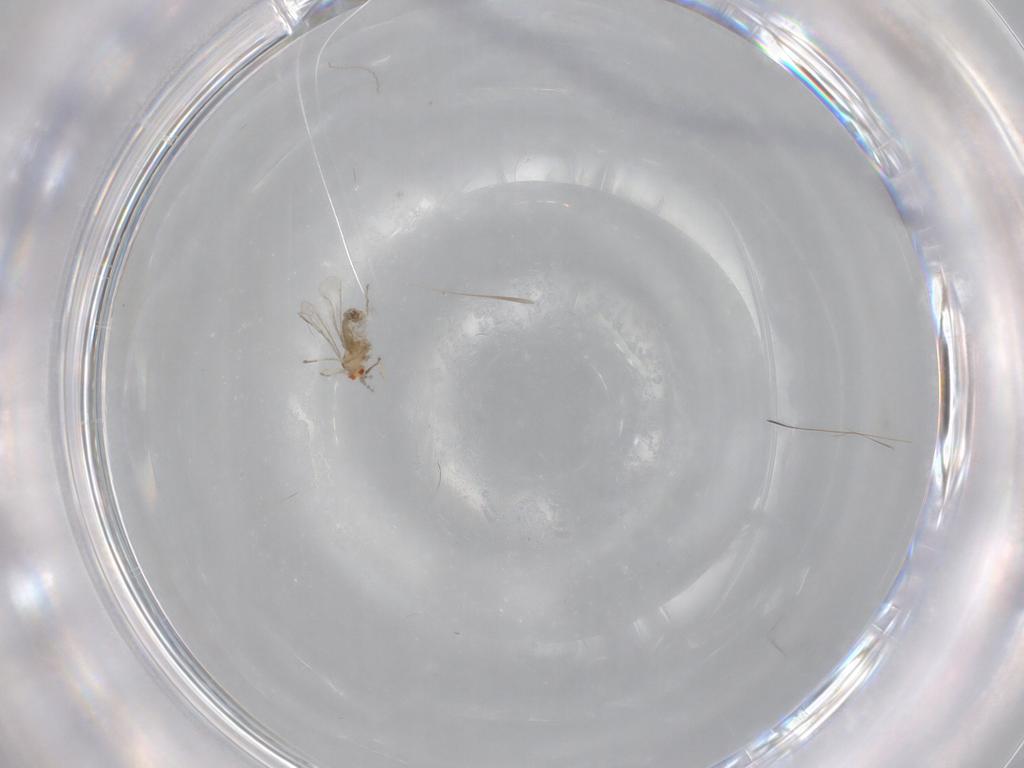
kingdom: Animalia
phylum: Arthropoda
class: Insecta
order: Diptera
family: Cecidomyiidae
